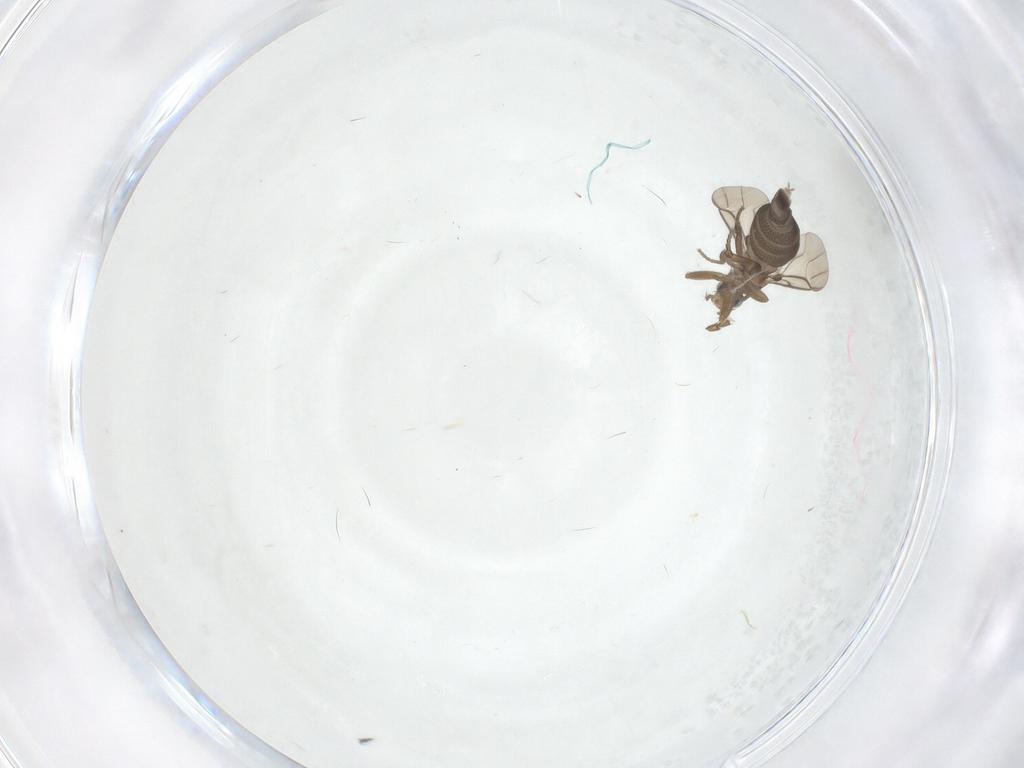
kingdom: Animalia
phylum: Arthropoda
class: Insecta
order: Diptera
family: Phoridae
